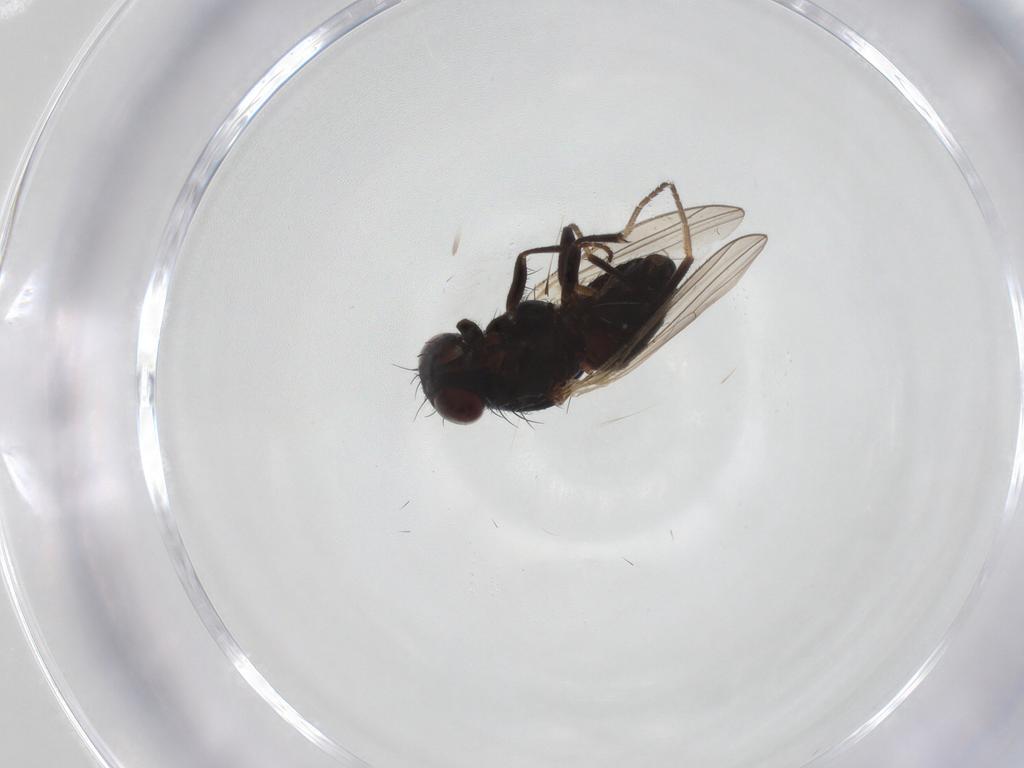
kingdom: Animalia
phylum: Arthropoda
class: Insecta
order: Diptera
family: Carnidae
